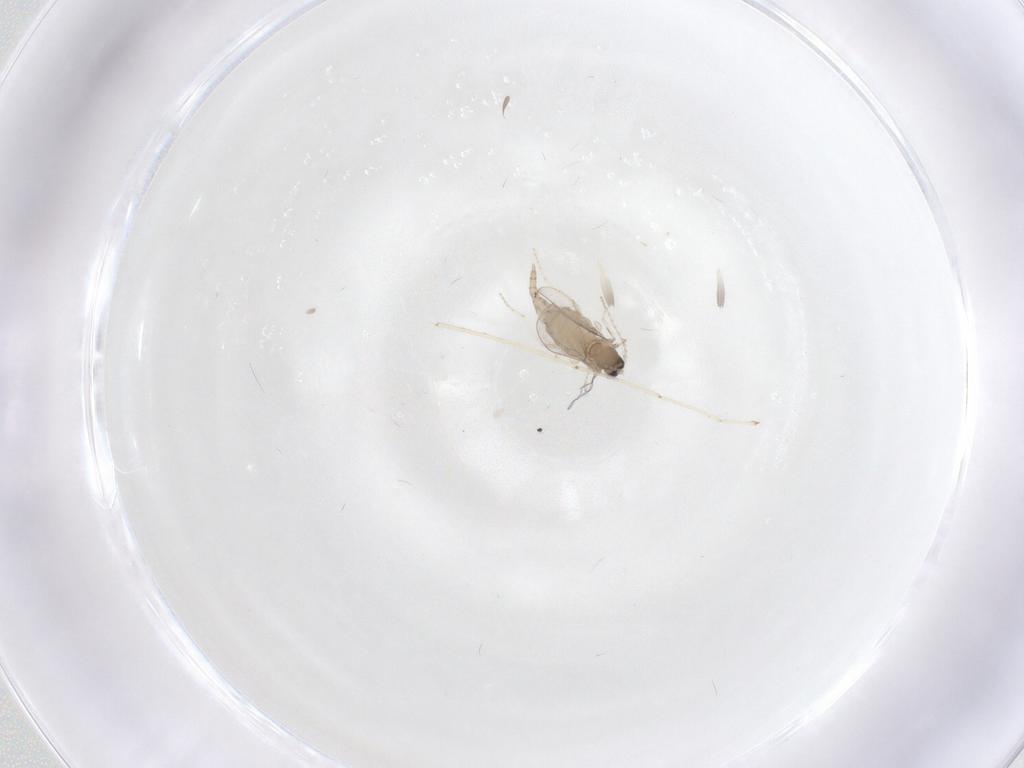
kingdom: Animalia
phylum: Arthropoda
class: Insecta
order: Diptera
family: Cecidomyiidae
